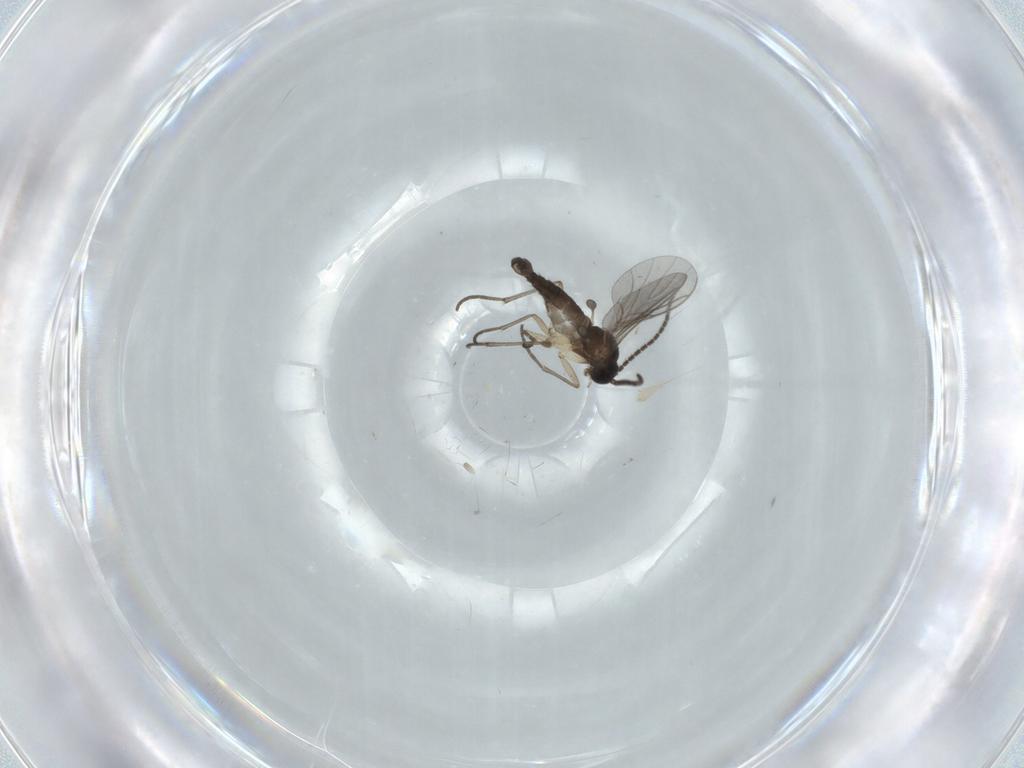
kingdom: Animalia
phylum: Arthropoda
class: Insecta
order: Diptera
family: Sciaridae
